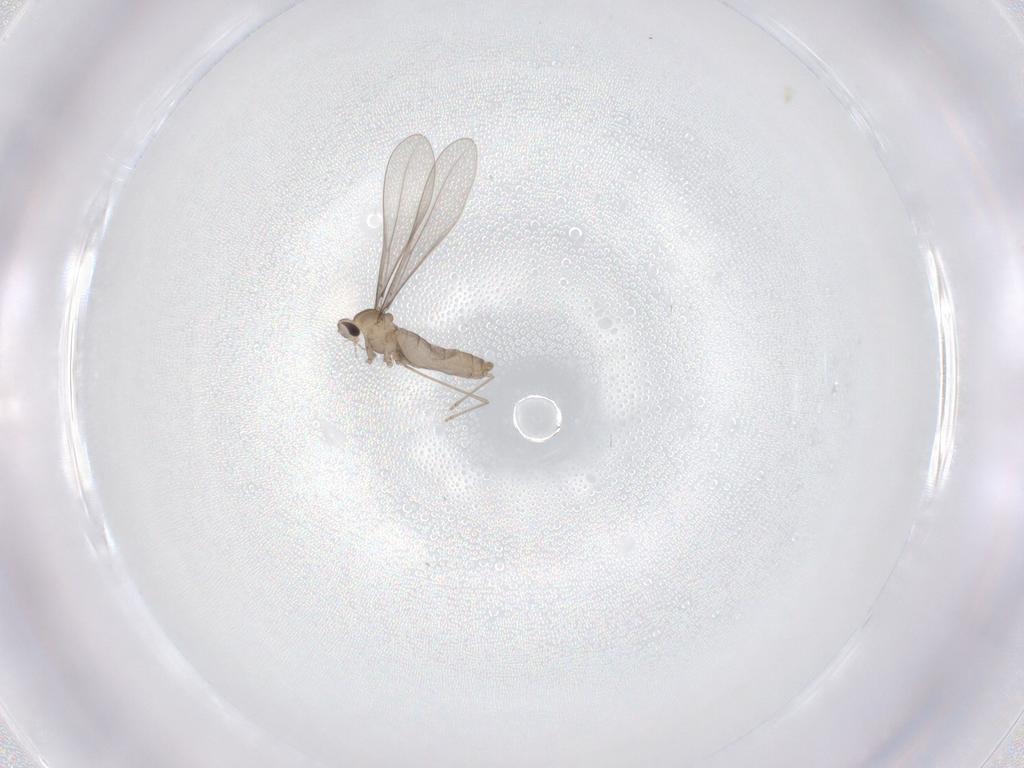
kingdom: Animalia
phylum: Arthropoda
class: Insecta
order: Diptera
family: Cecidomyiidae
